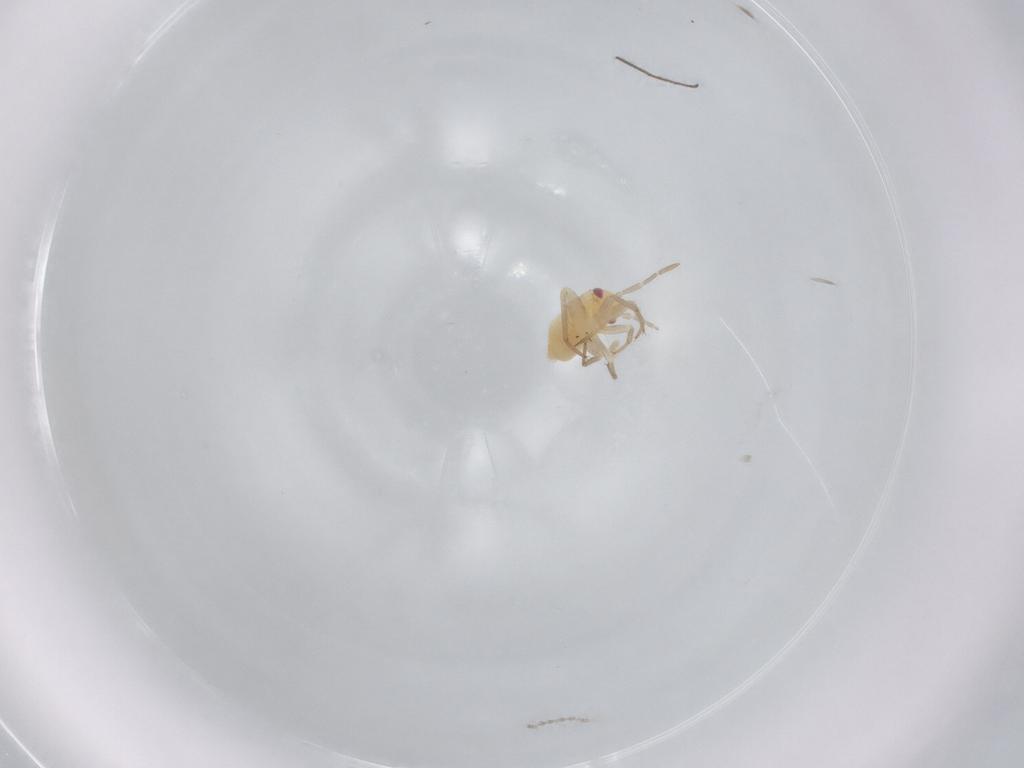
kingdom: Animalia
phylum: Arthropoda
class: Insecta
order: Hemiptera
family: Miridae
